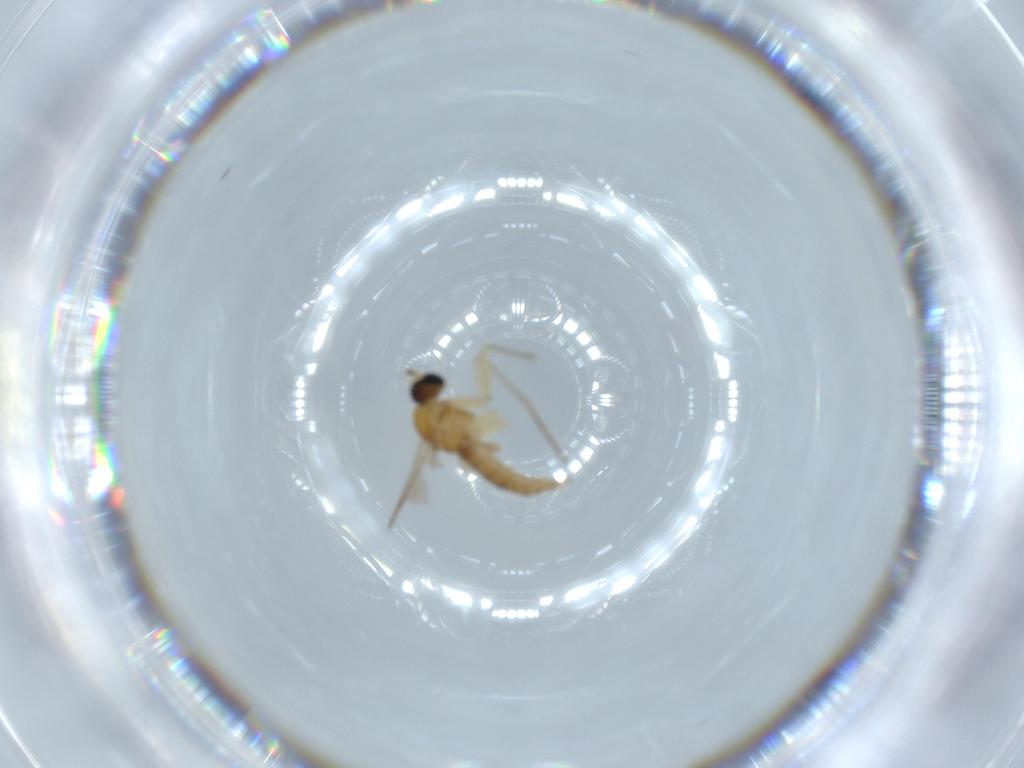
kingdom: Animalia
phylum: Arthropoda
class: Insecta
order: Diptera
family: Sciaridae
